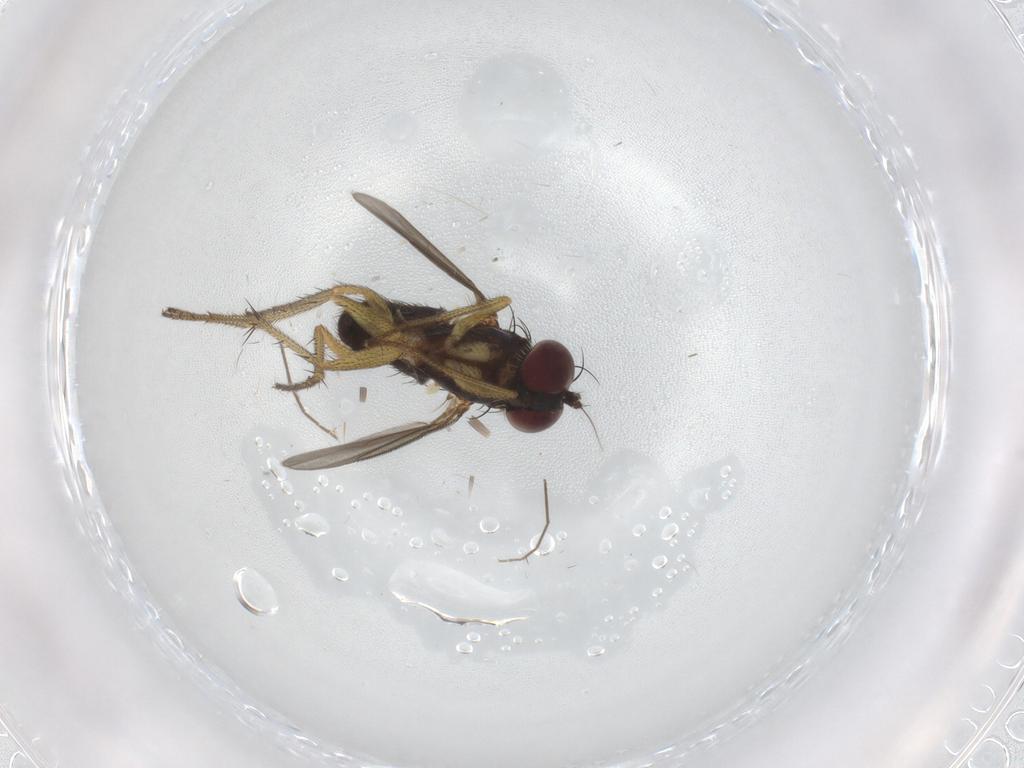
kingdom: Animalia
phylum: Arthropoda
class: Insecta
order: Diptera
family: Dolichopodidae
